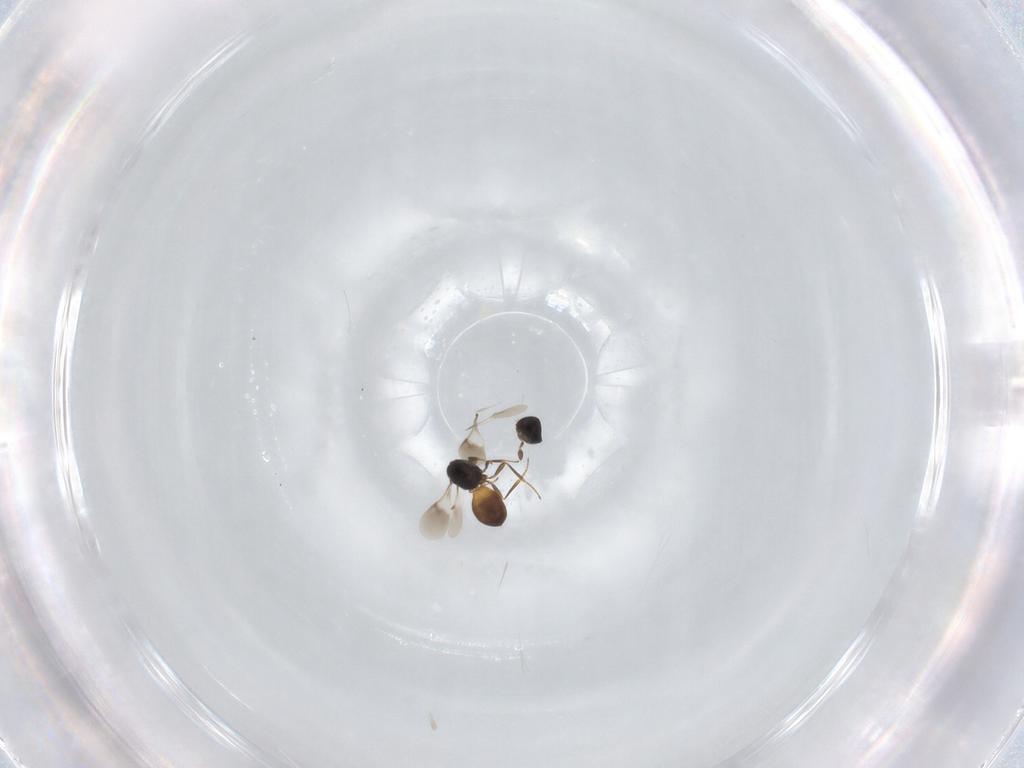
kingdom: Animalia
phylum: Arthropoda
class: Insecta
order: Hymenoptera
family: Scelionidae
